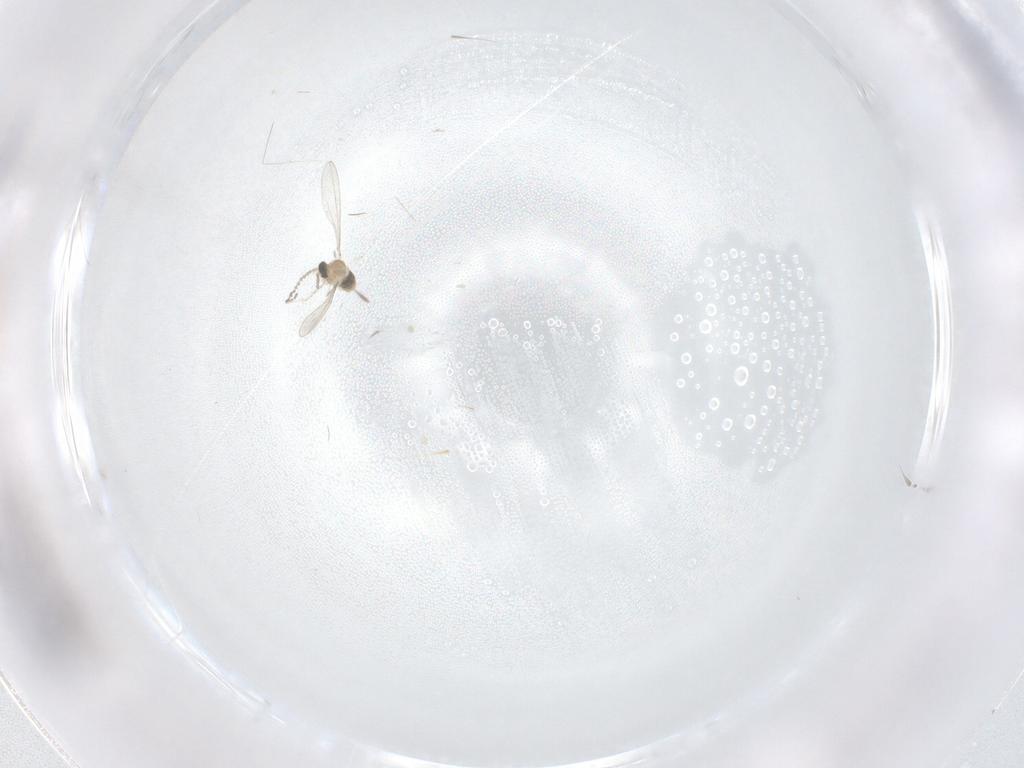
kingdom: Animalia
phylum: Arthropoda
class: Insecta
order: Diptera
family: Cecidomyiidae
